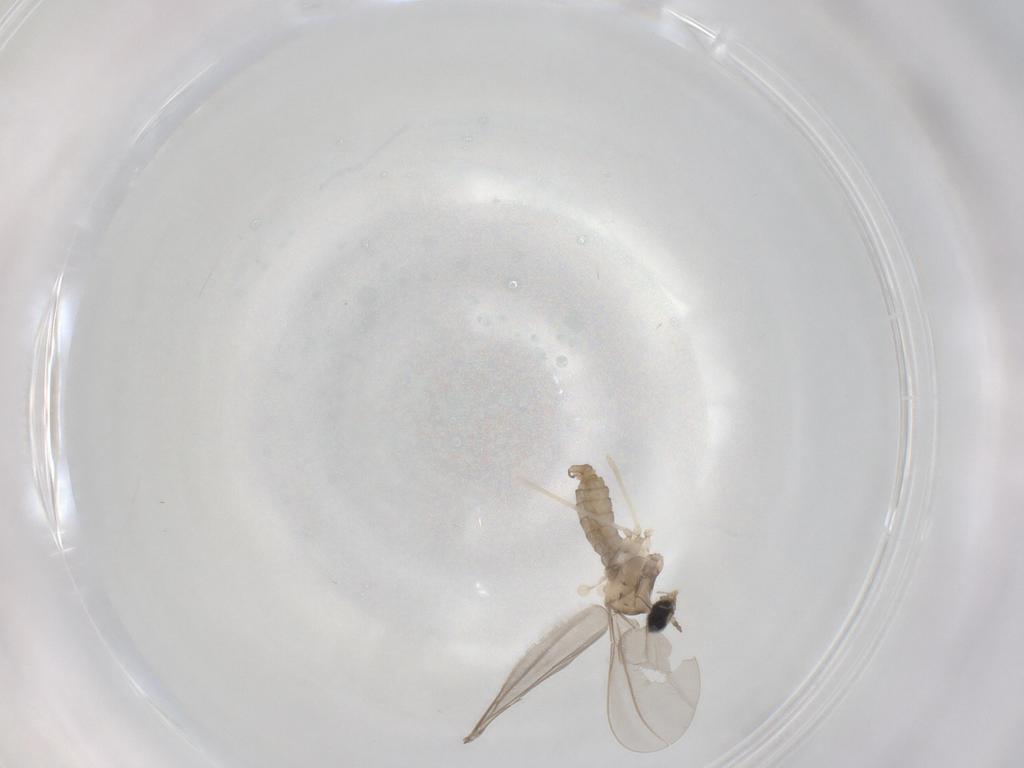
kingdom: Animalia
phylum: Arthropoda
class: Insecta
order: Diptera
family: Cecidomyiidae
